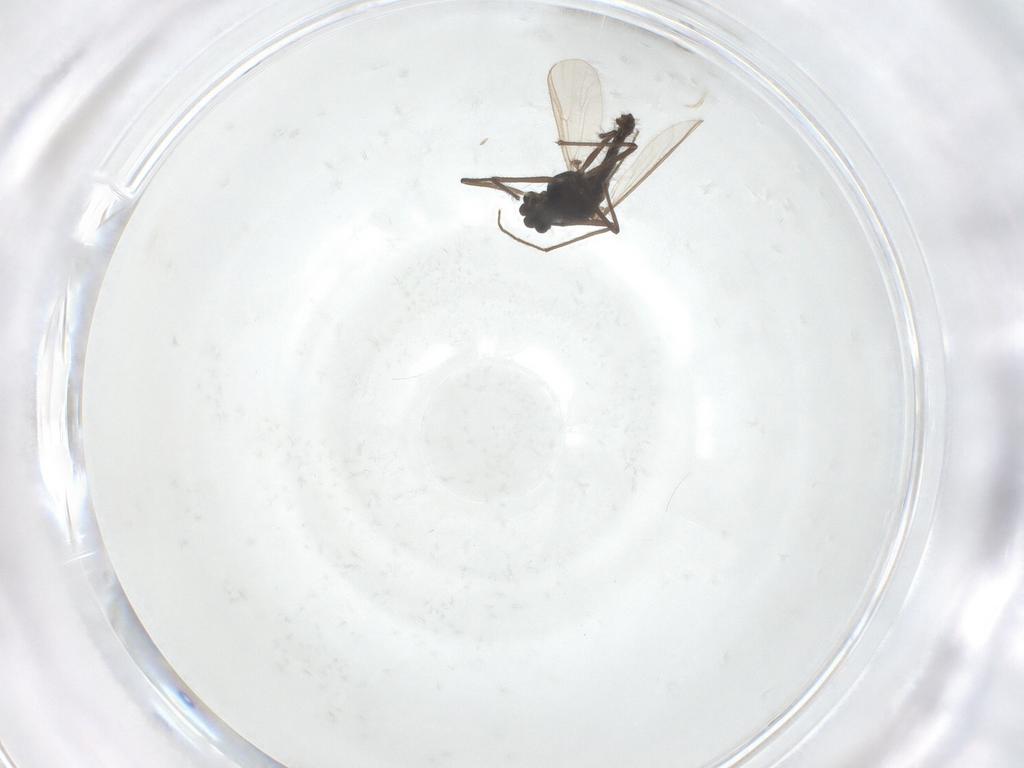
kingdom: Animalia
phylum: Arthropoda
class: Insecta
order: Diptera
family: Chironomidae
